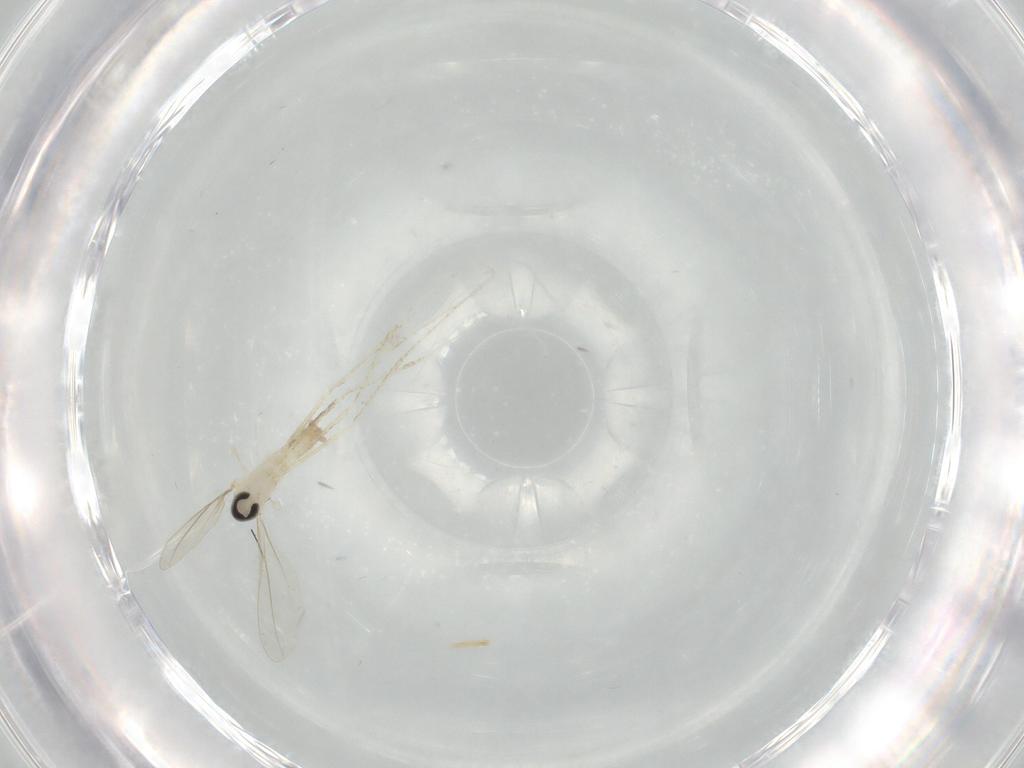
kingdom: Animalia
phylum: Arthropoda
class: Insecta
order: Diptera
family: Cecidomyiidae
